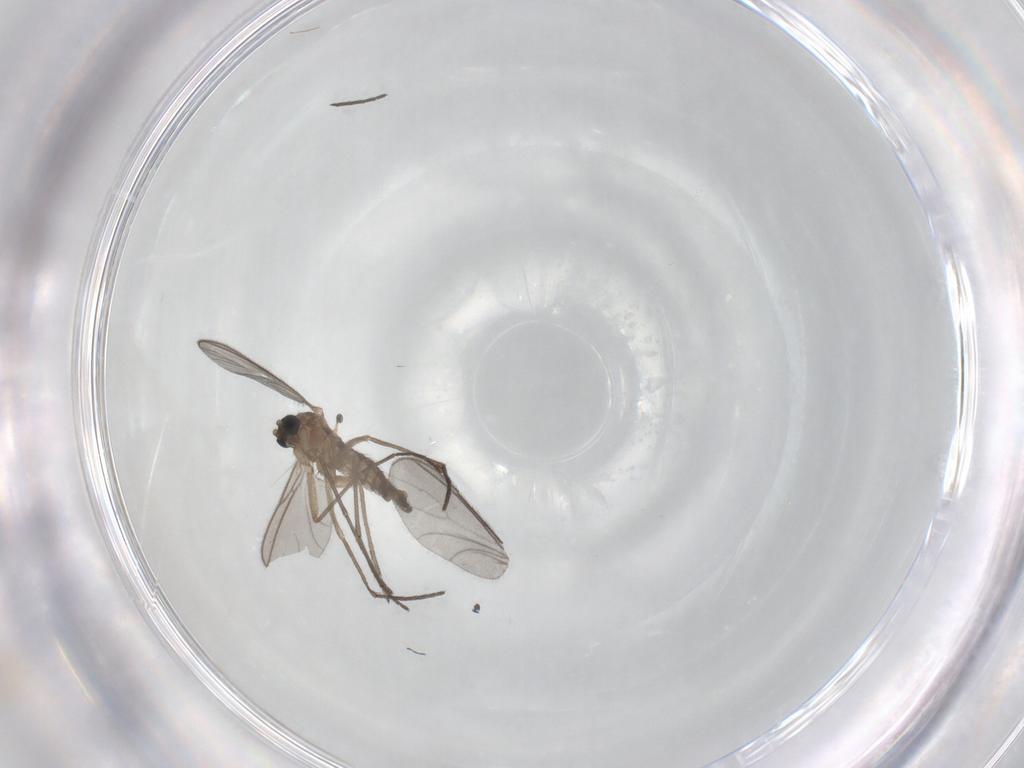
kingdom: Animalia
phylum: Arthropoda
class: Insecta
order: Diptera
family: Sciaridae
